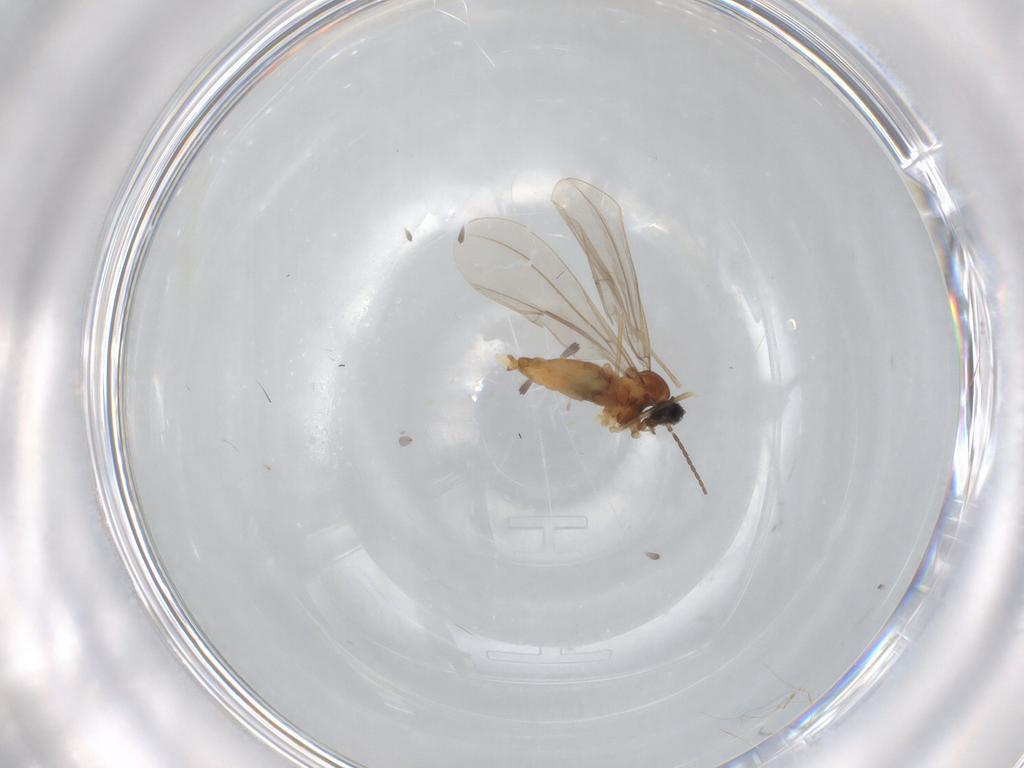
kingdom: Animalia
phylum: Arthropoda
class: Insecta
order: Diptera
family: Cecidomyiidae
